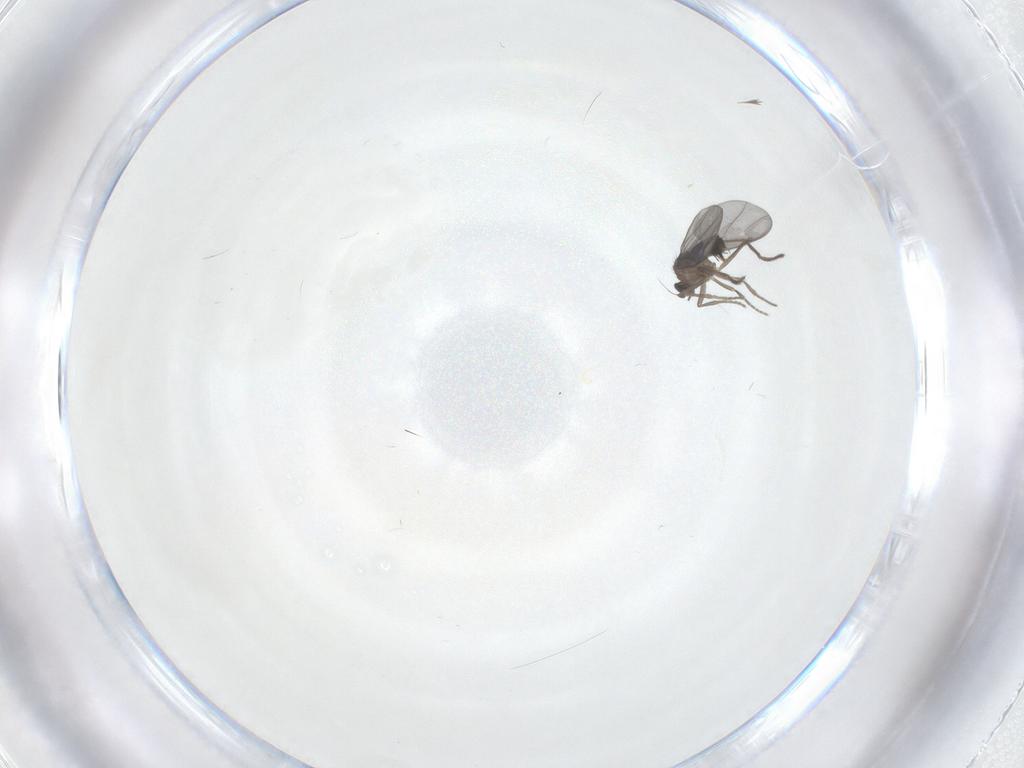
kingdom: Animalia
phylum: Arthropoda
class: Insecta
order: Diptera
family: Phoridae
